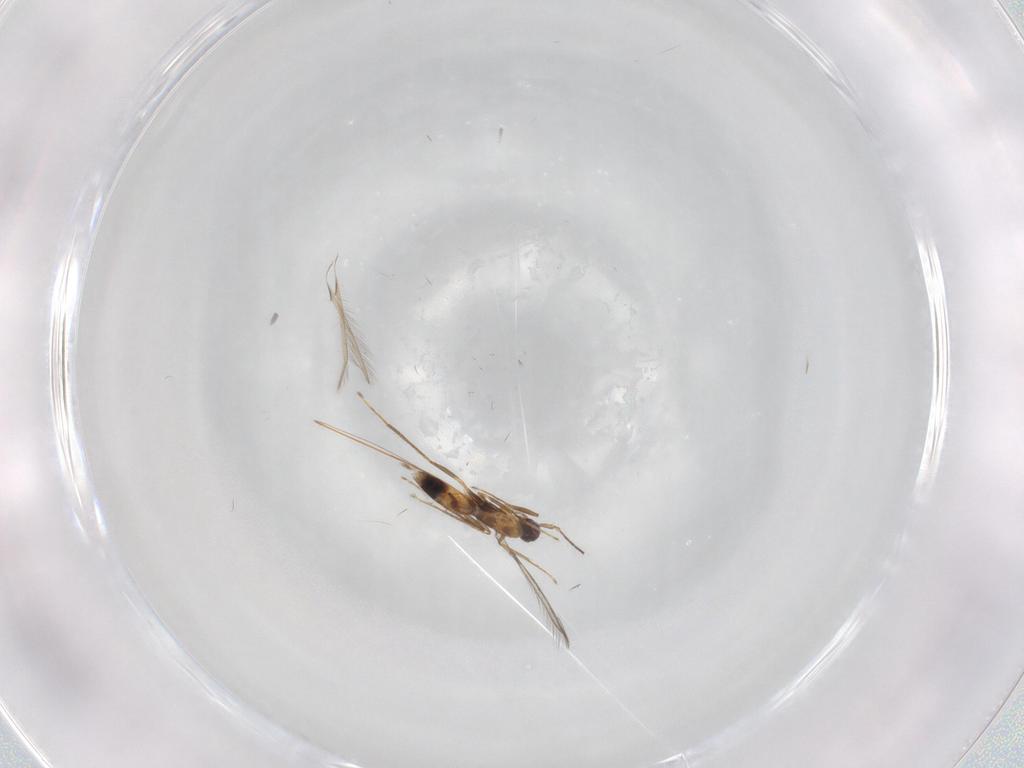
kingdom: Animalia
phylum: Arthropoda
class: Insecta
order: Hymenoptera
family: Mymaridae
